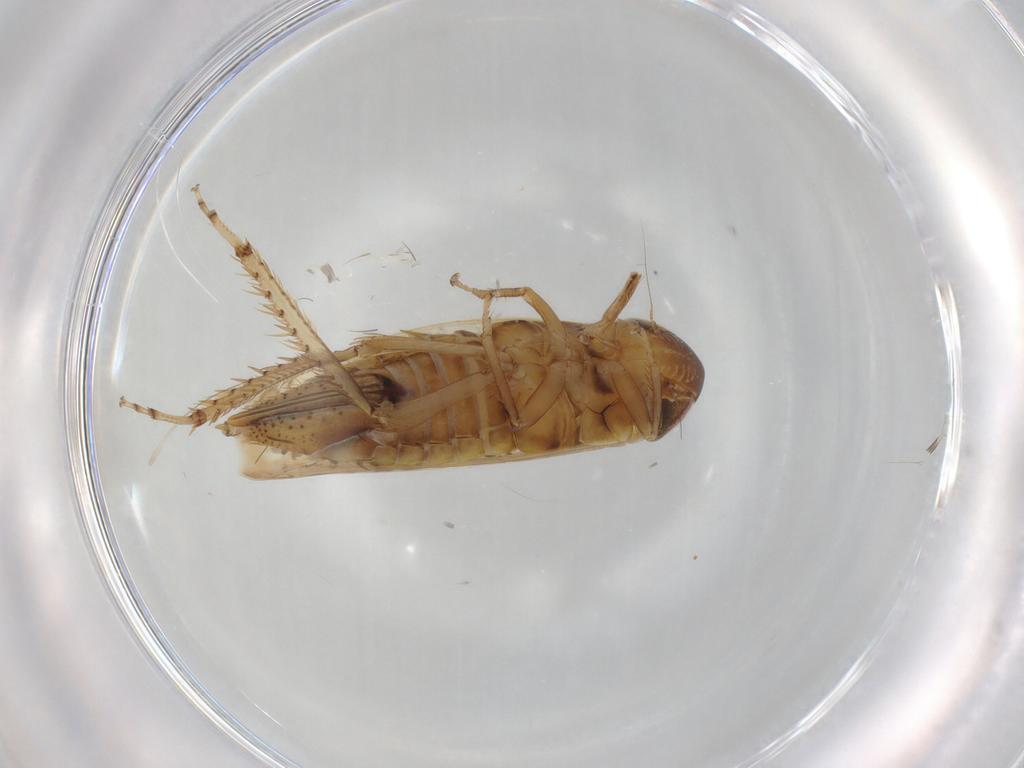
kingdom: Animalia
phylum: Arthropoda
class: Insecta
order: Hemiptera
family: Cicadellidae
